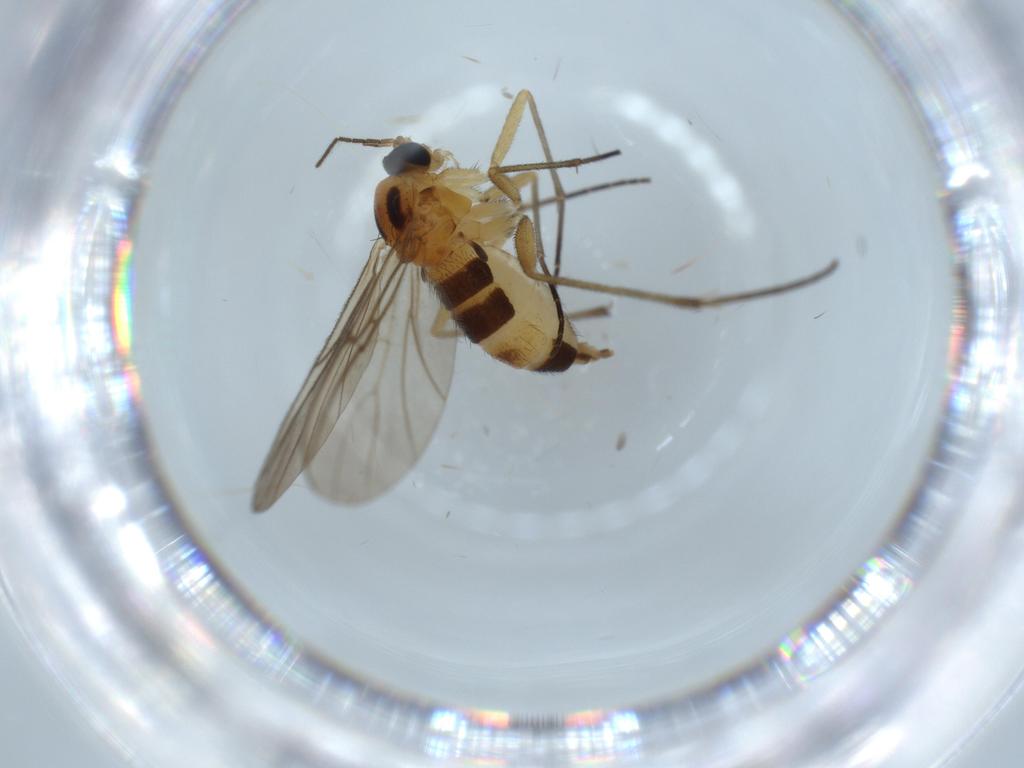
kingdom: Animalia
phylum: Arthropoda
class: Insecta
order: Diptera
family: Chironomidae
